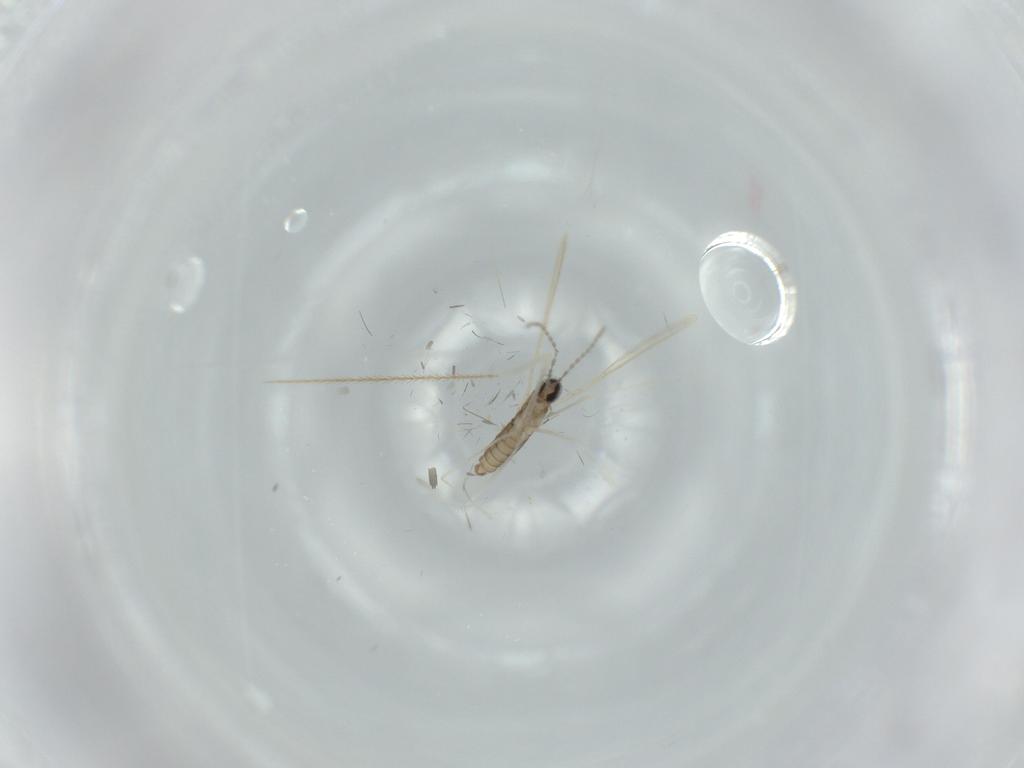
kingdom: Animalia
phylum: Arthropoda
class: Insecta
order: Diptera
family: Cecidomyiidae
